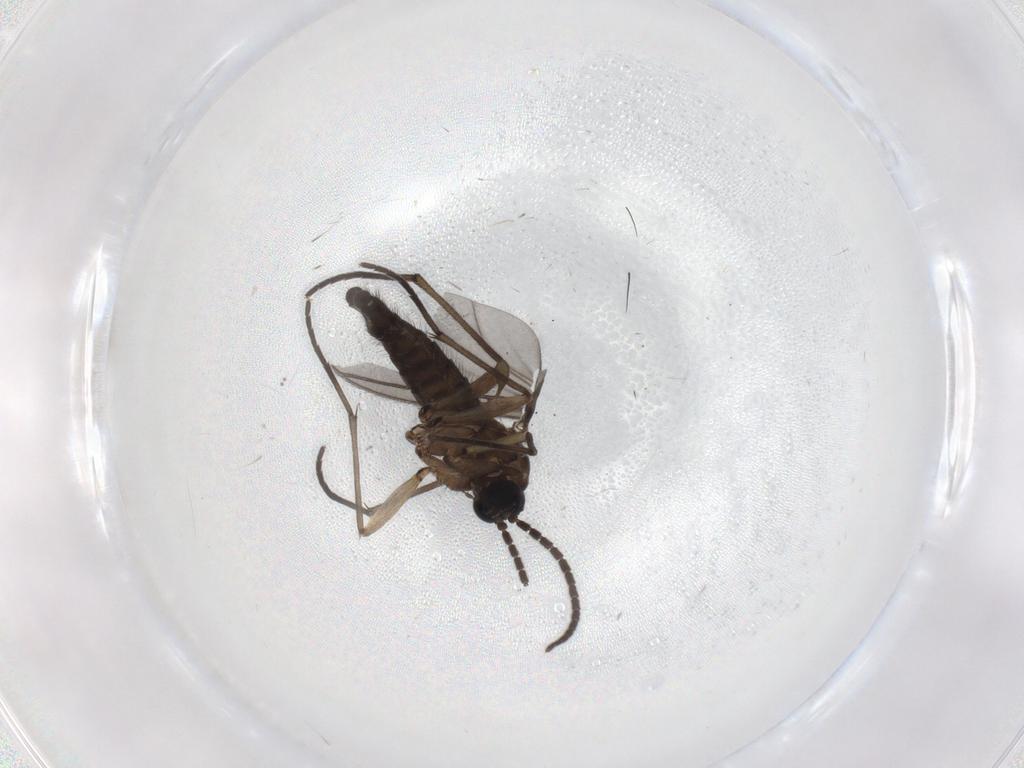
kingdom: Animalia
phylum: Arthropoda
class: Insecta
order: Diptera
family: Sciaridae
